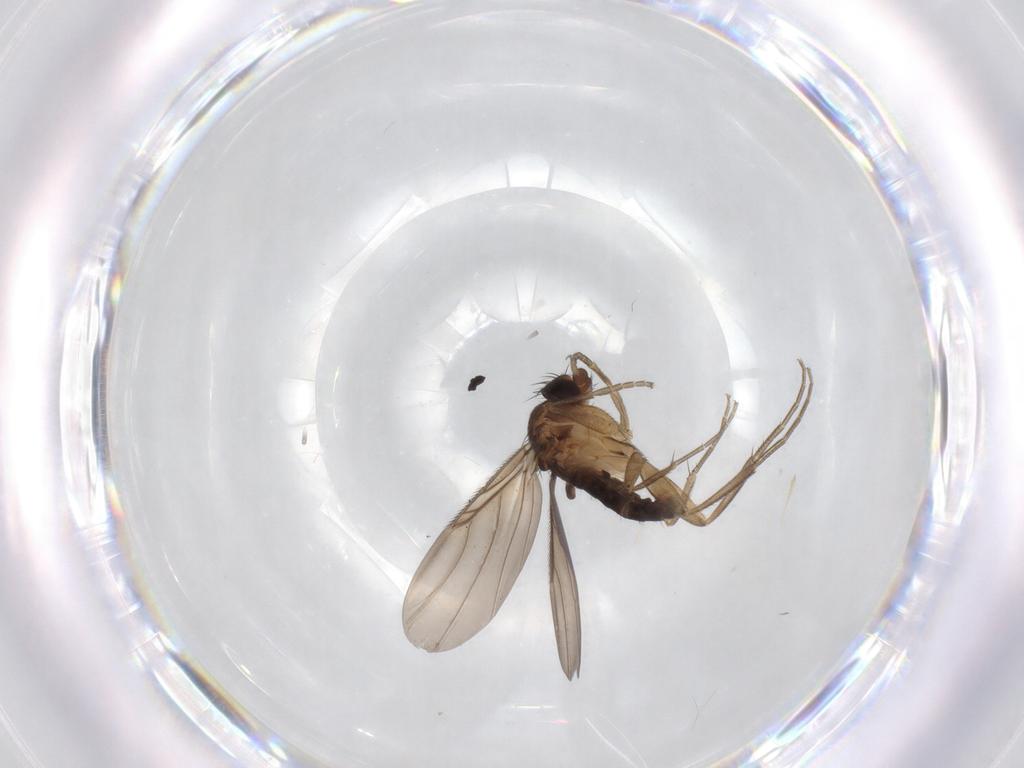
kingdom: Animalia
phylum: Arthropoda
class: Insecta
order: Diptera
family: Phoridae
